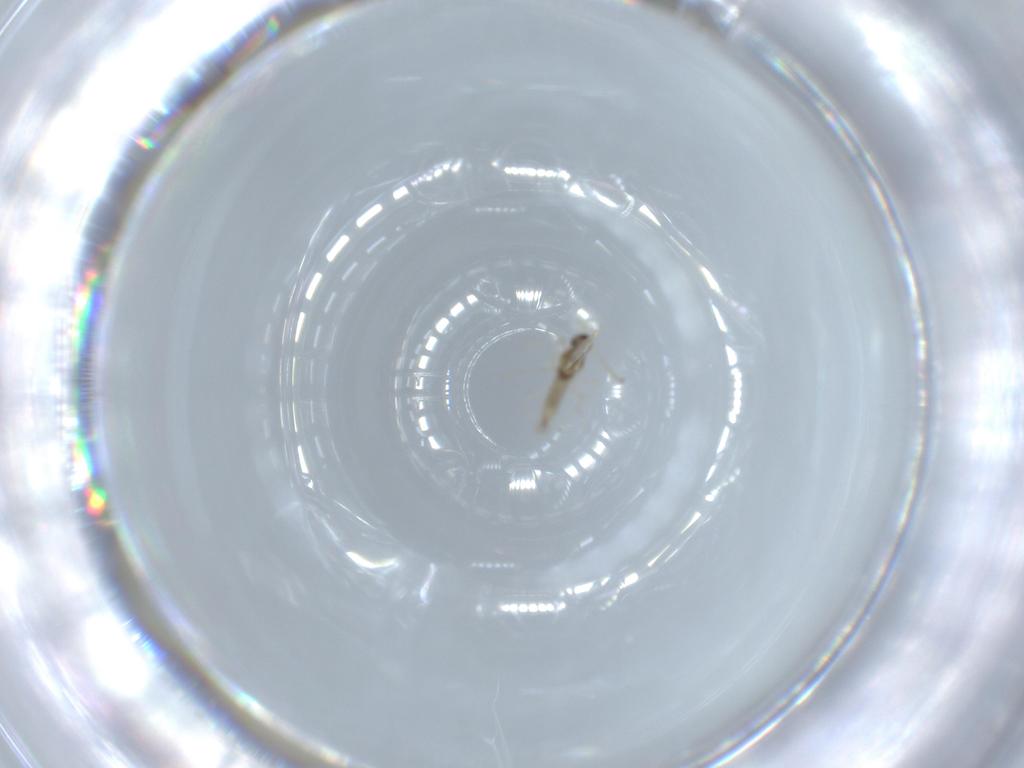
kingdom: Animalia
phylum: Arthropoda
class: Insecta
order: Diptera
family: Cecidomyiidae
